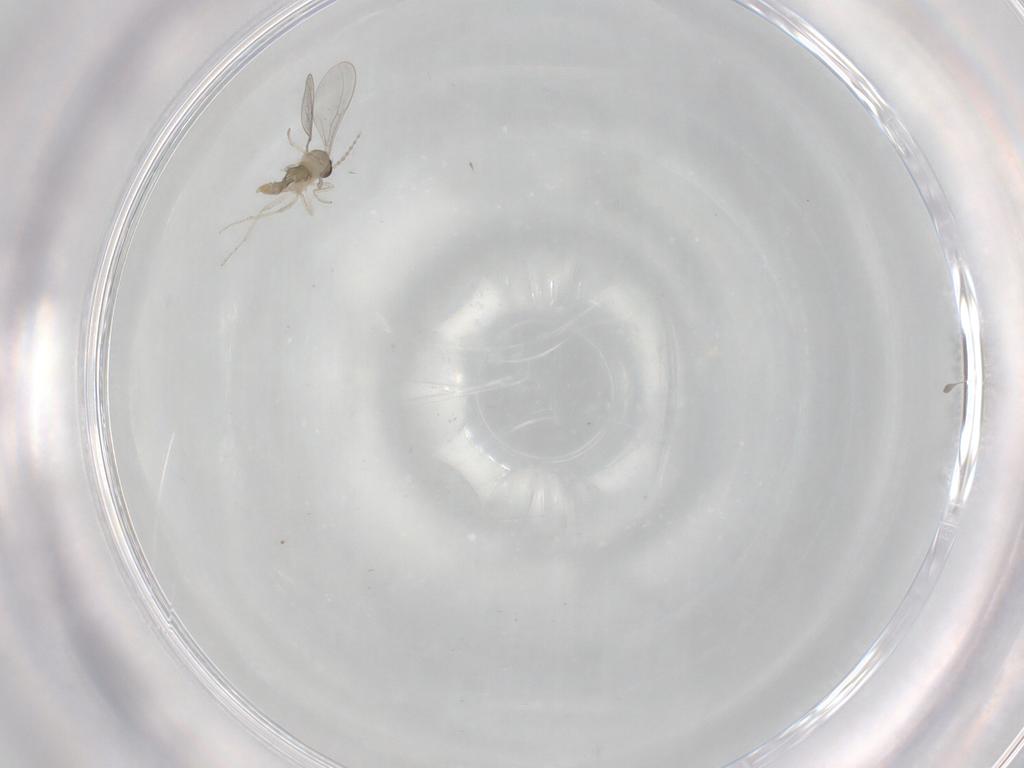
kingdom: Animalia
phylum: Arthropoda
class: Insecta
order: Diptera
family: Cecidomyiidae
